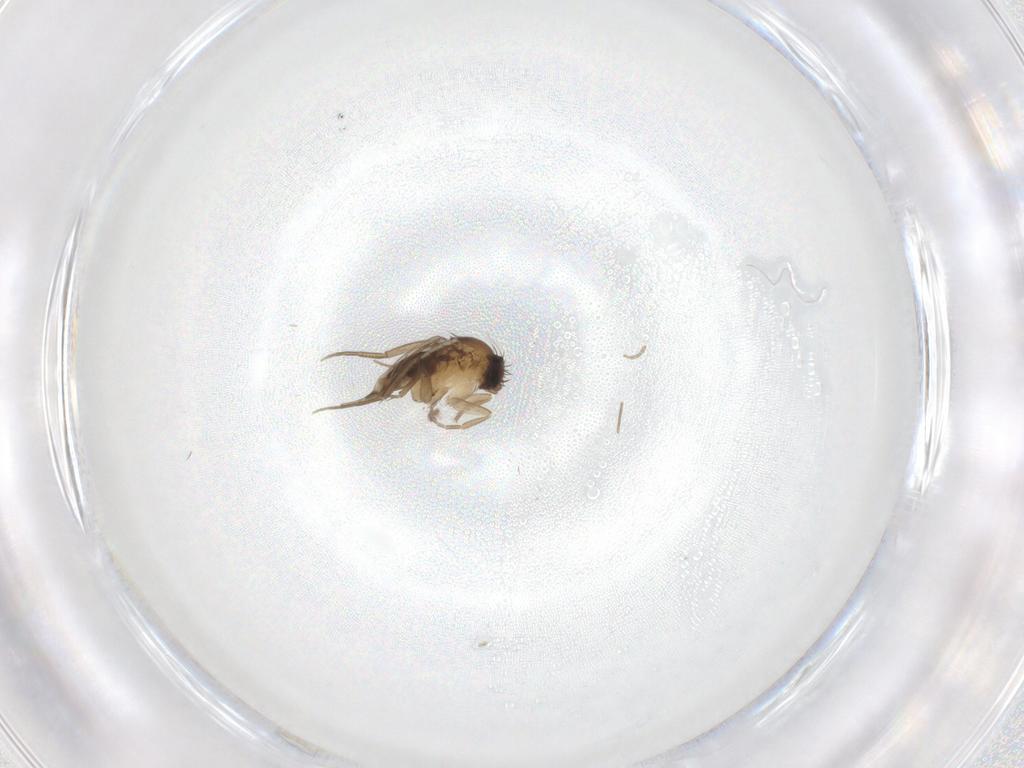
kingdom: Animalia
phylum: Arthropoda
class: Insecta
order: Diptera
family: Phoridae
